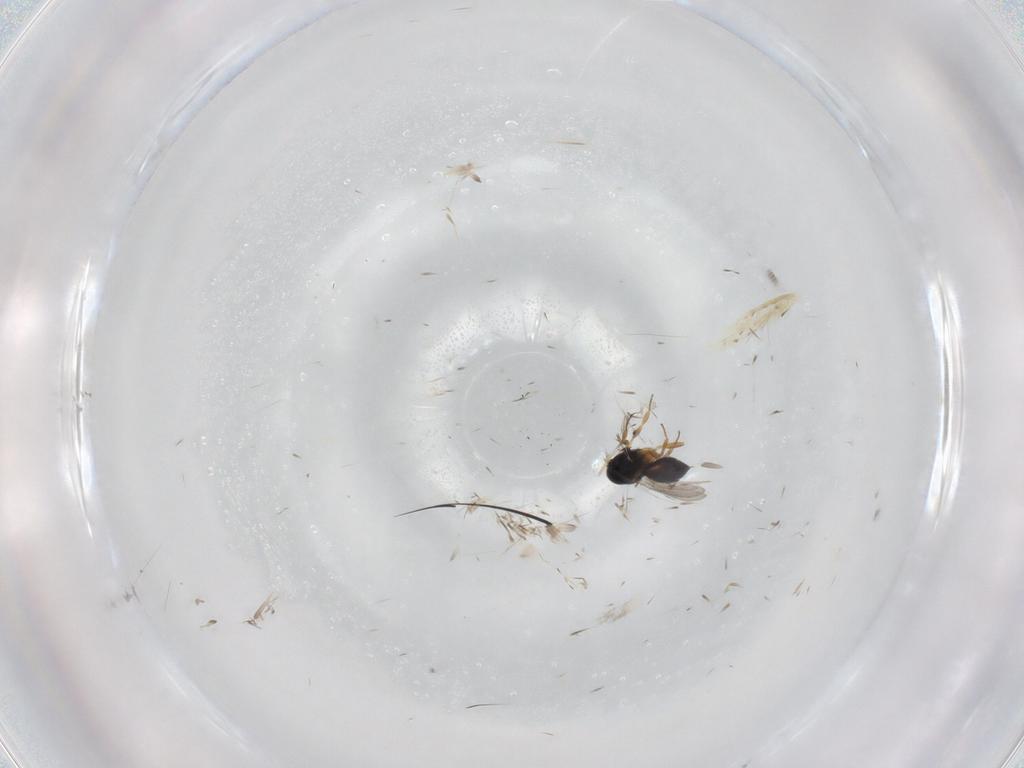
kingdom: Animalia
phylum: Arthropoda
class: Insecta
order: Hymenoptera
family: Scelionidae
